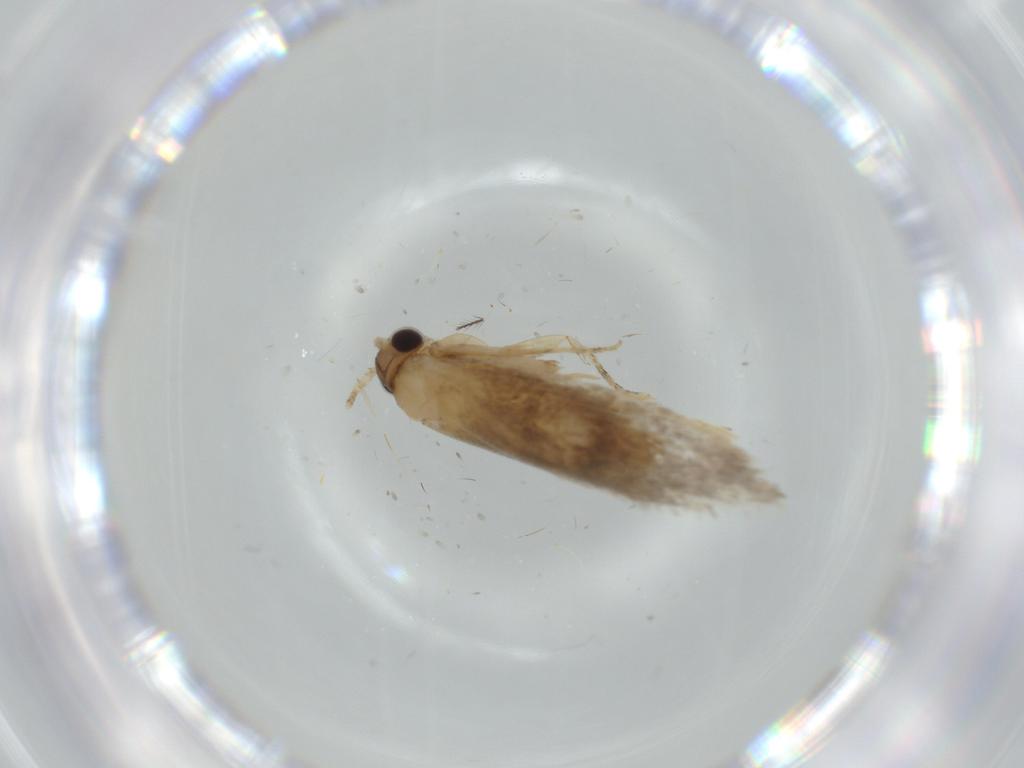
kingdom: Animalia
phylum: Arthropoda
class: Insecta
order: Lepidoptera
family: Tineidae
